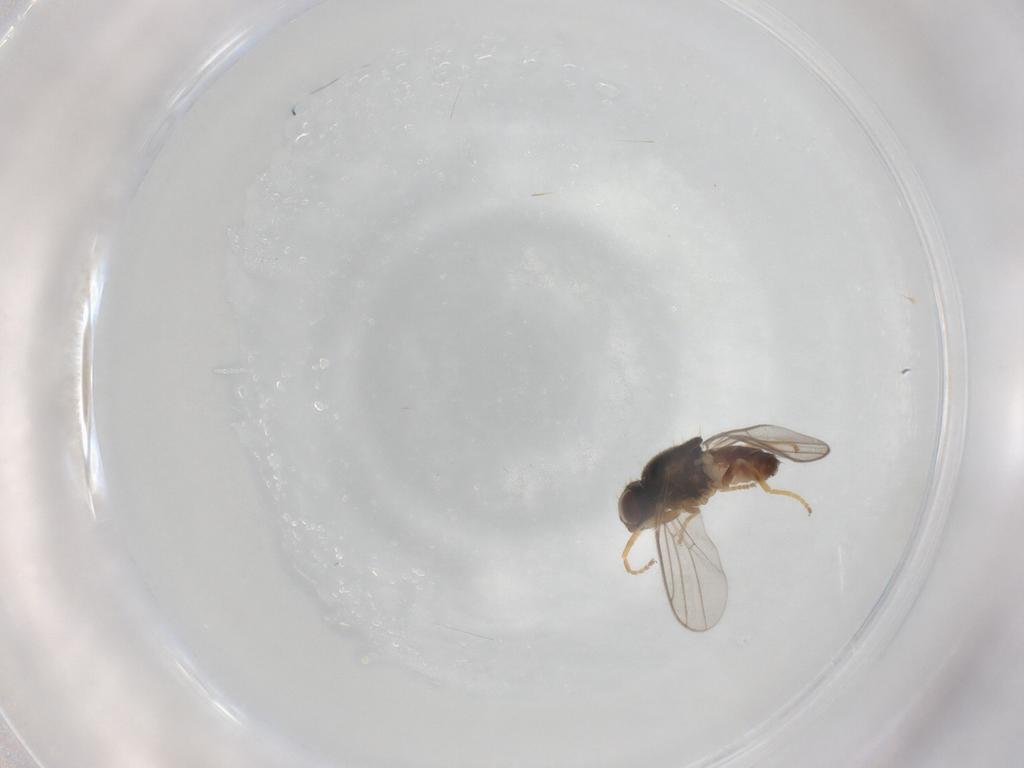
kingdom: Animalia
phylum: Arthropoda
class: Insecta
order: Diptera
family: Chloropidae
